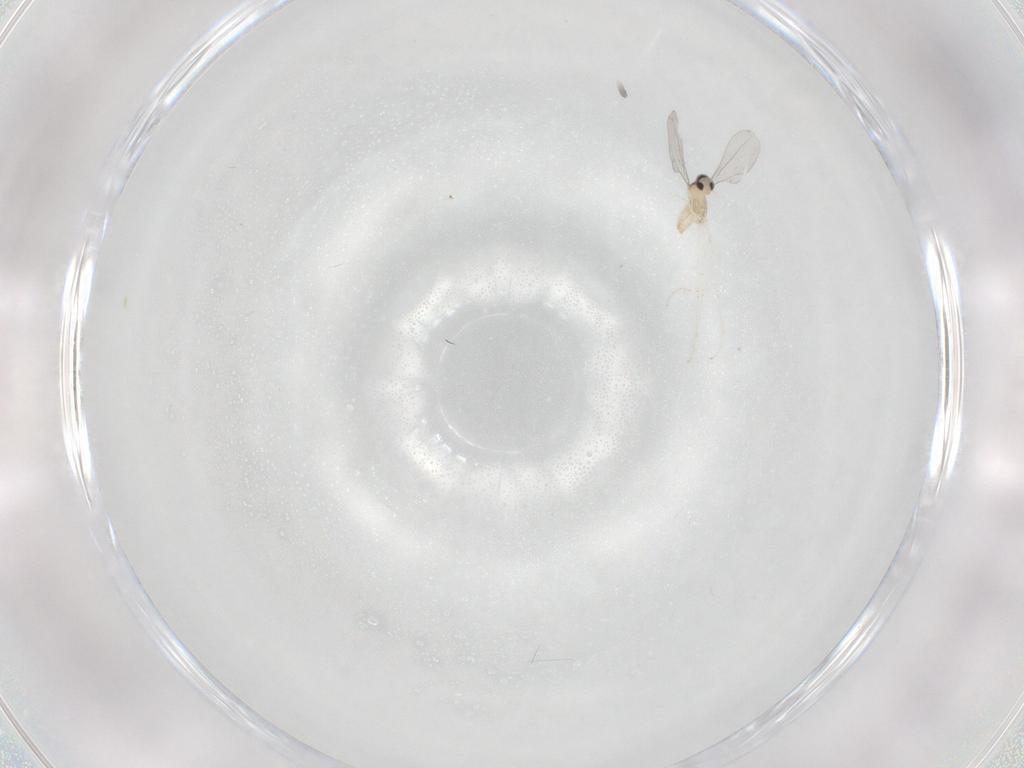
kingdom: Animalia
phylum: Arthropoda
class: Insecta
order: Diptera
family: Cecidomyiidae
